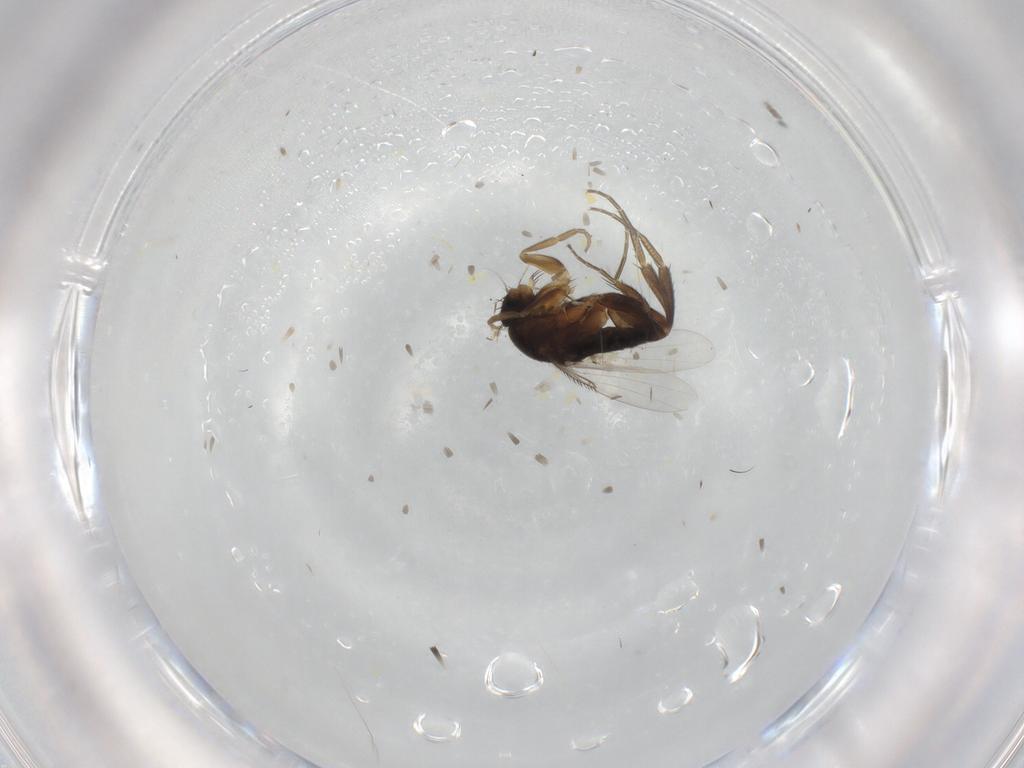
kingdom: Animalia
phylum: Arthropoda
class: Insecta
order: Diptera
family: Phoridae
